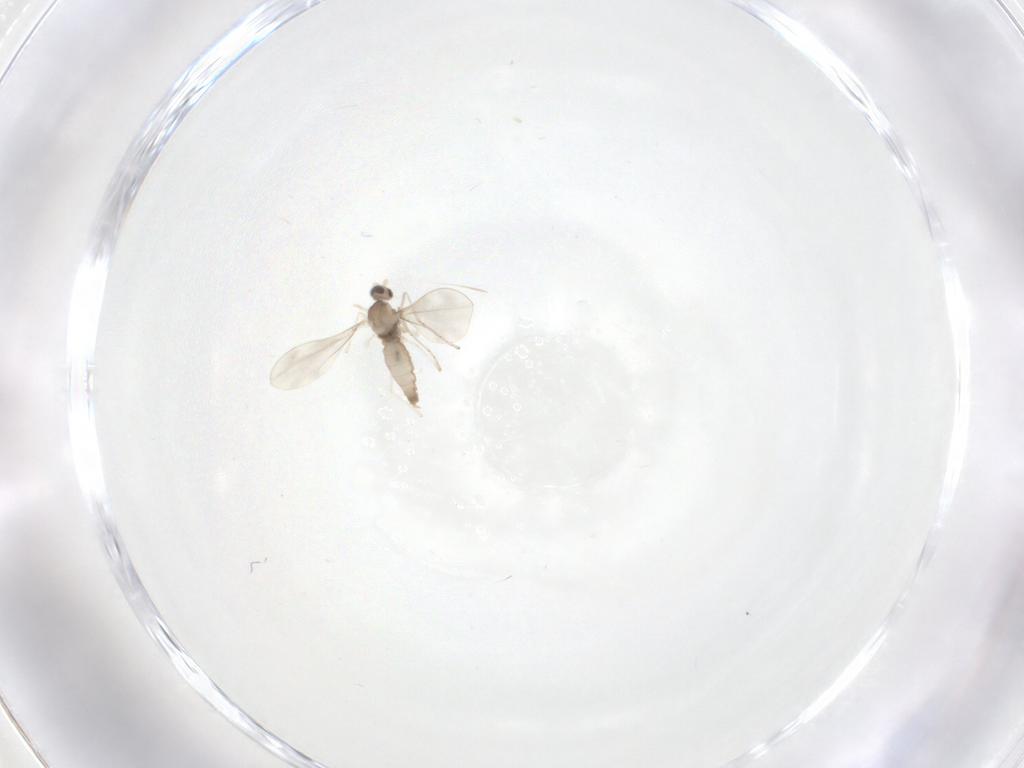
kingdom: Animalia
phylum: Arthropoda
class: Insecta
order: Diptera
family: Cecidomyiidae
